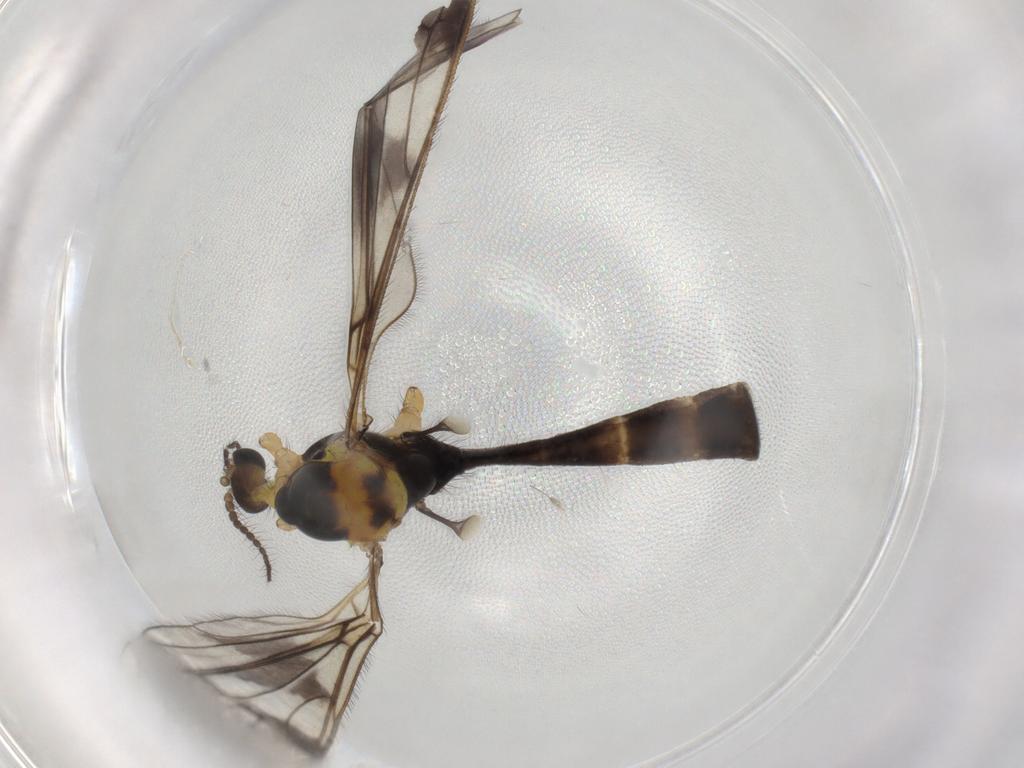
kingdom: Animalia
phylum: Arthropoda
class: Insecta
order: Diptera
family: Limoniidae
